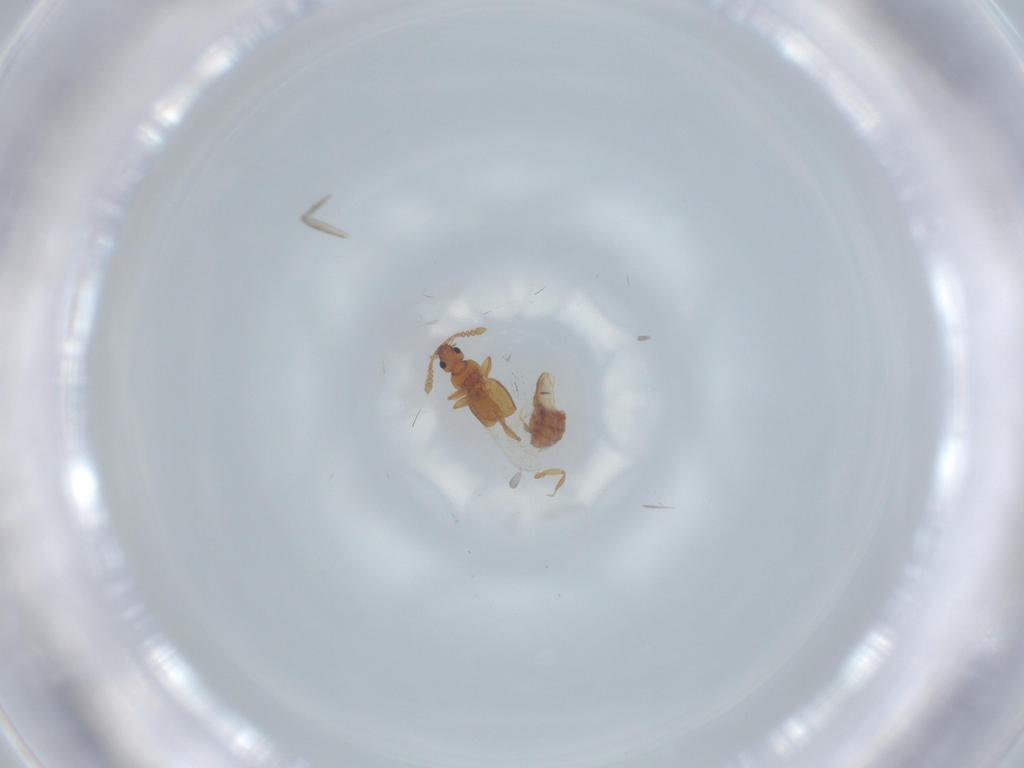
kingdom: Animalia
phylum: Arthropoda
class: Insecta
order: Coleoptera
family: Staphylinidae
